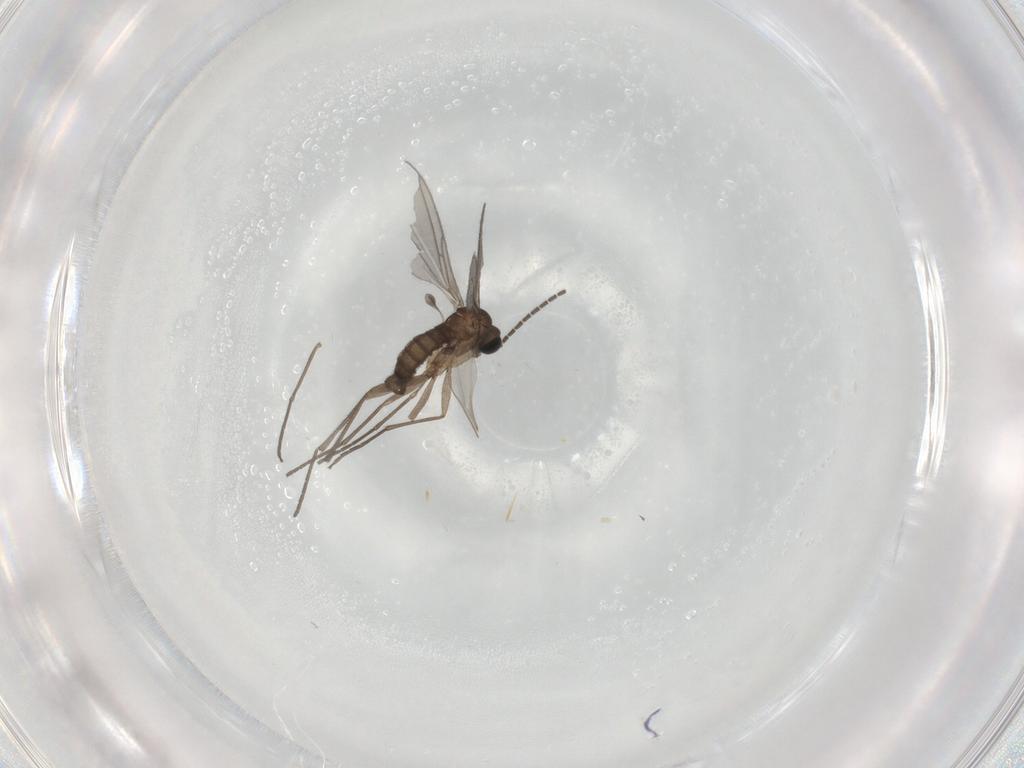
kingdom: Animalia
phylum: Arthropoda
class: Insecta
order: Diptera
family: Sciaridae
